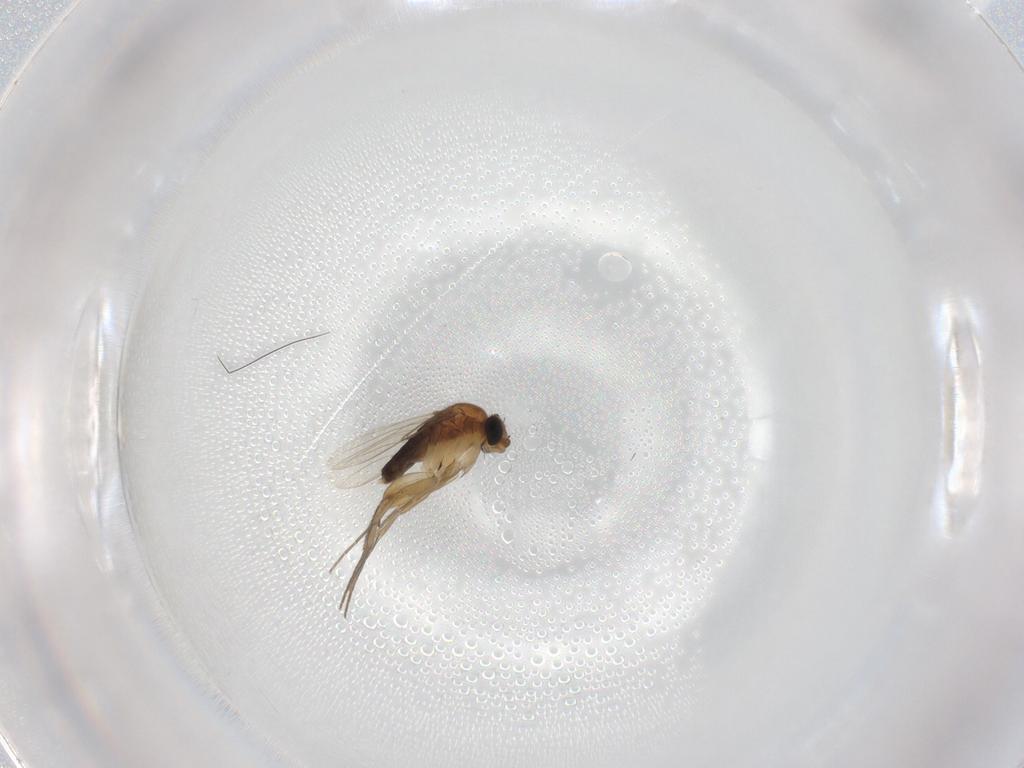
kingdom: Animalia
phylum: Arthropoda
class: Insecta
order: Diptera
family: Phoridae
